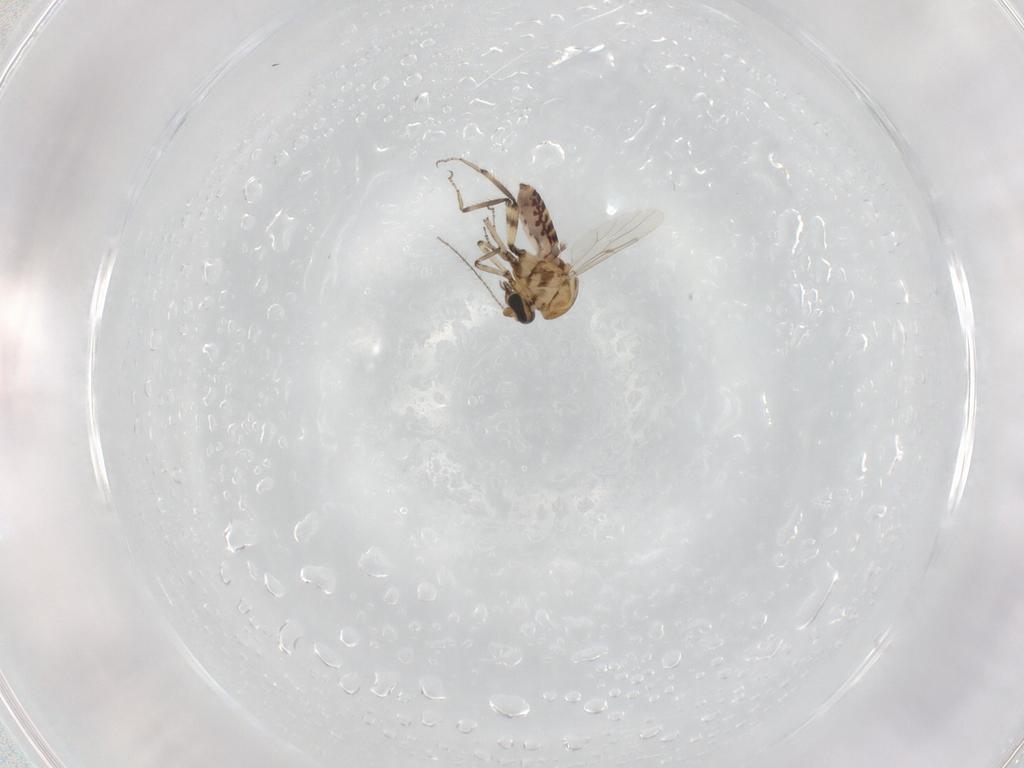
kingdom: Animalia
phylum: Arthropoda
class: Insecta
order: Diptera
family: Ceratopogonidae
